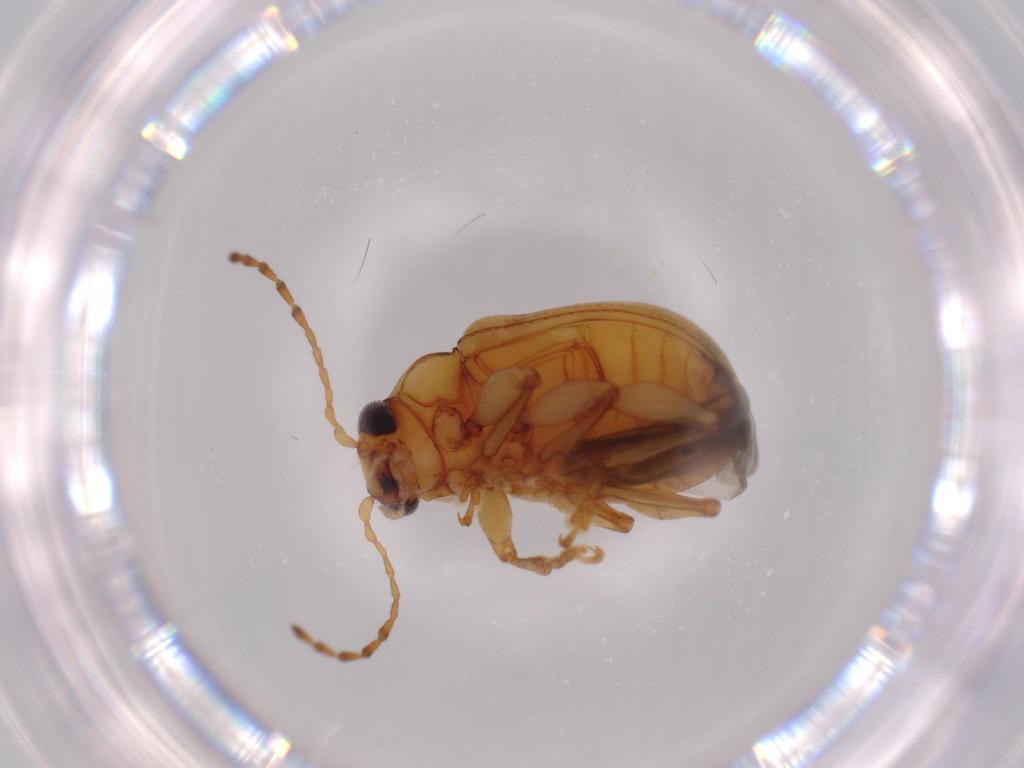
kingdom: Animalia
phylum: Arthropoda
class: Insecta
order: Coleoptera
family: Chrysomelidae
